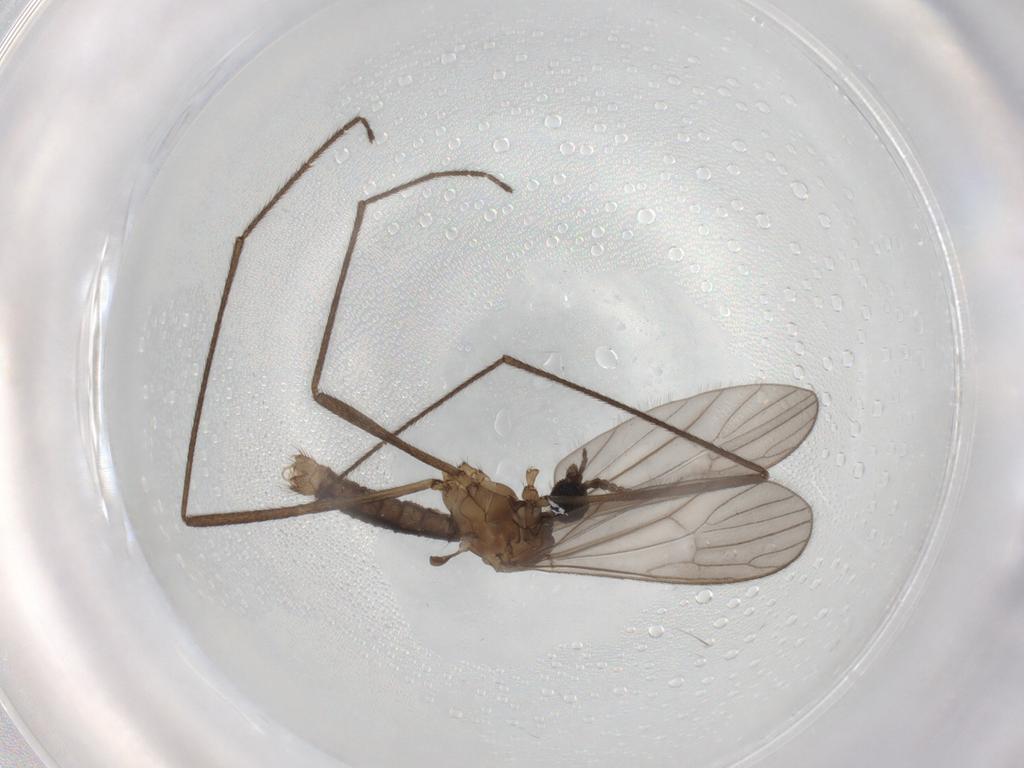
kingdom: Animalia
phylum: Arthropoda
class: Insecta
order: Diptera
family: Limoniidae
